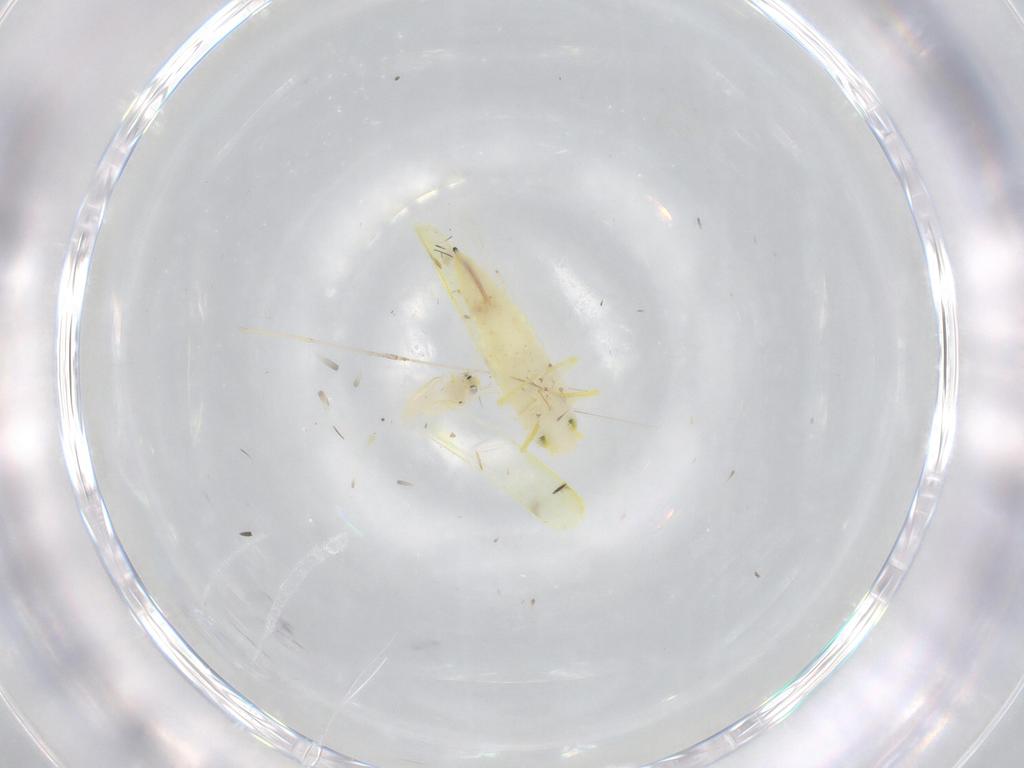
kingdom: Animalia
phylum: Arthropoda
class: Insecta
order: Hemiptera
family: Cicadellidae
